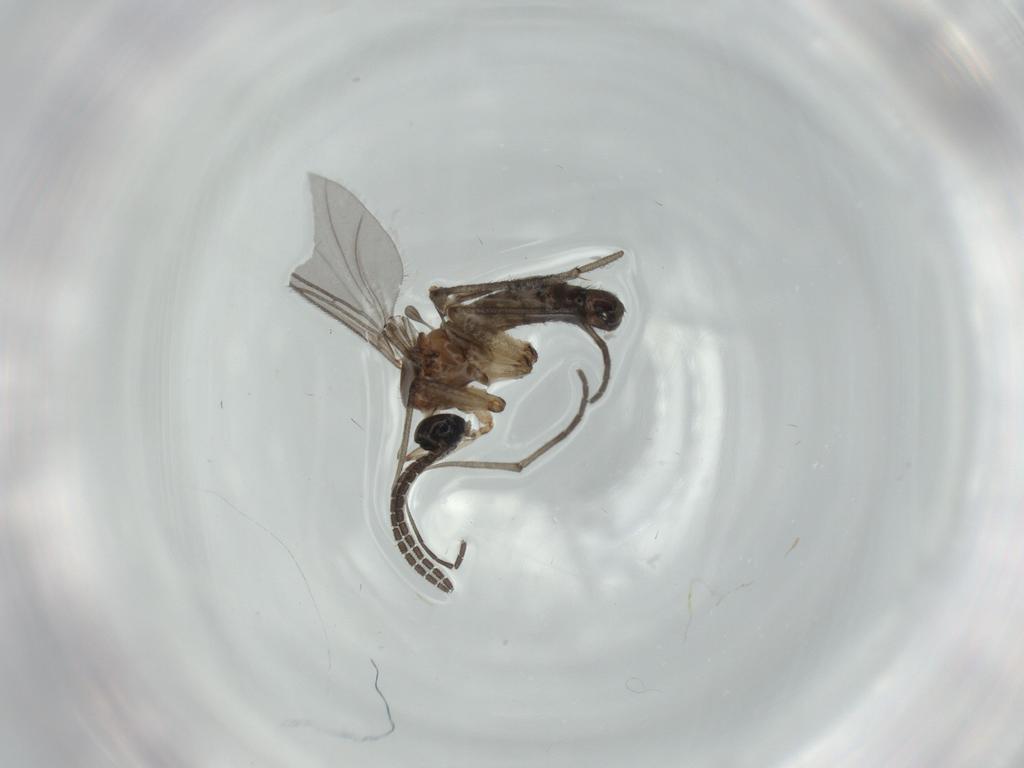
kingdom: Animalia
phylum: Arthropoda
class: Insecta
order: Diptera
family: Sciaridae
